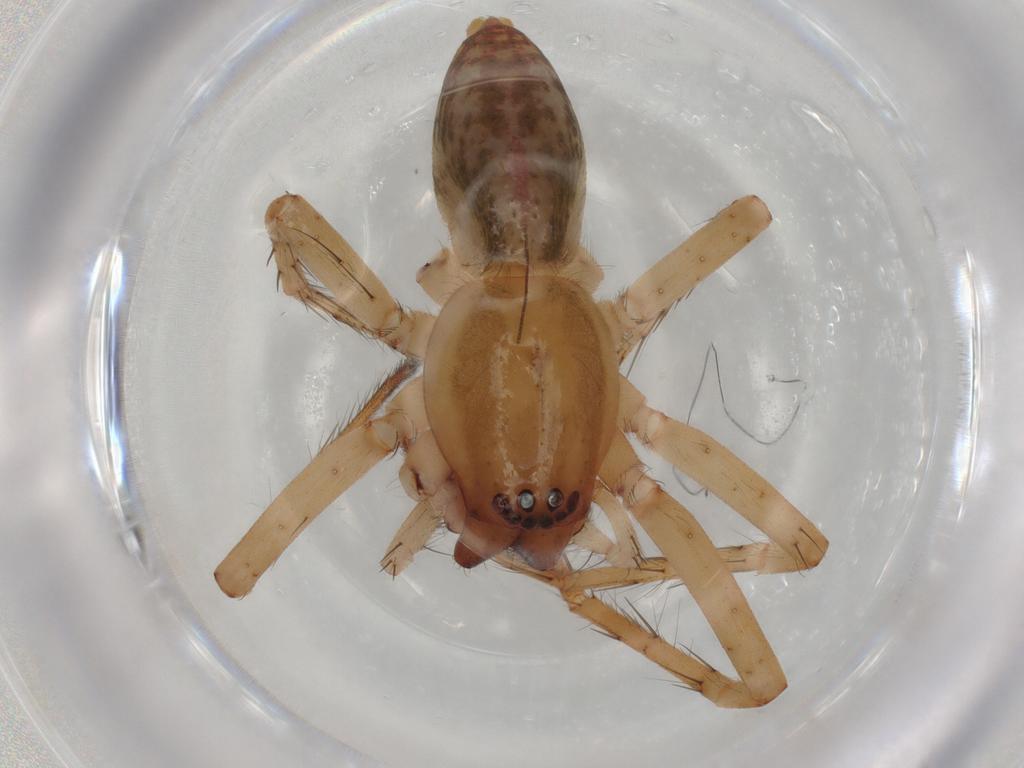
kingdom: Animalia
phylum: Arthropoda
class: Arachnida
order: Araneae
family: Anyphaenidae
